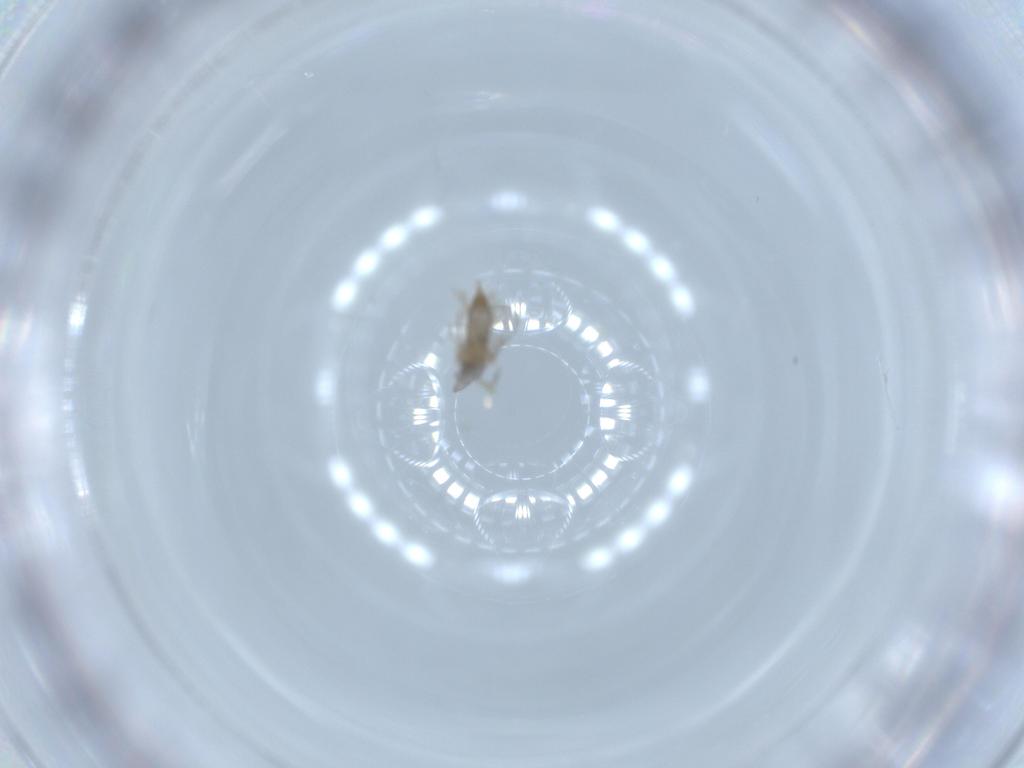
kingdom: Animalia
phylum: Arthropoda
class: Insecta
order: Diptera
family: Cecidomyiidae
